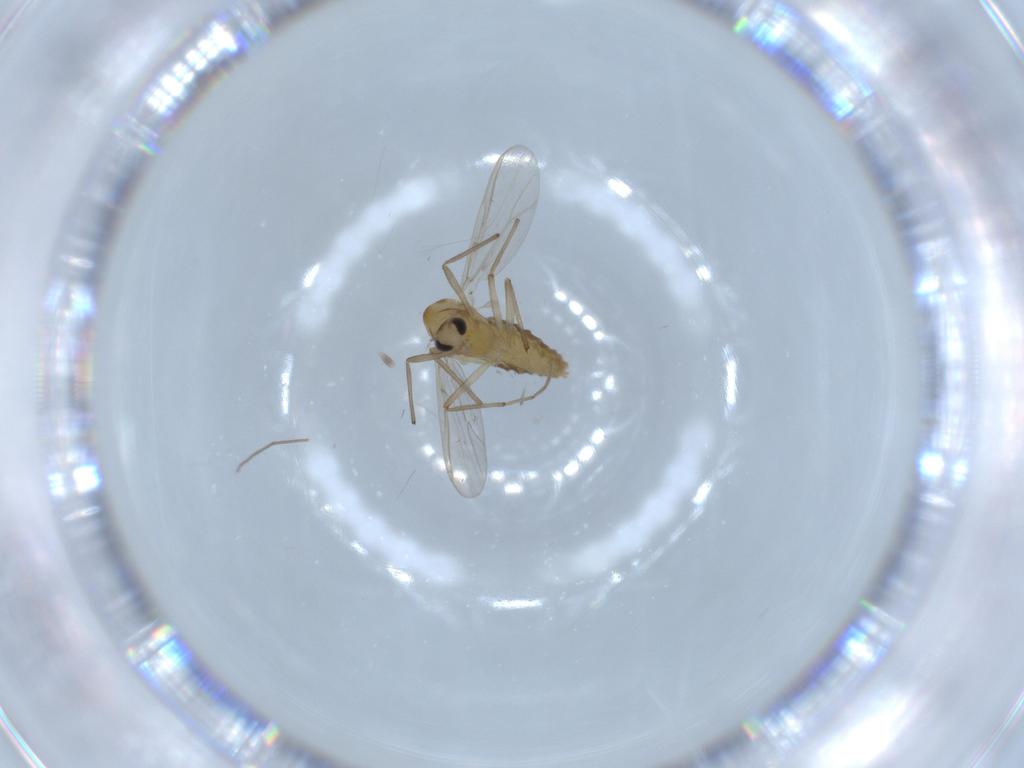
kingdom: Animalia
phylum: Arthropoda
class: Insecta
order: Diptera
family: Chironomidae
